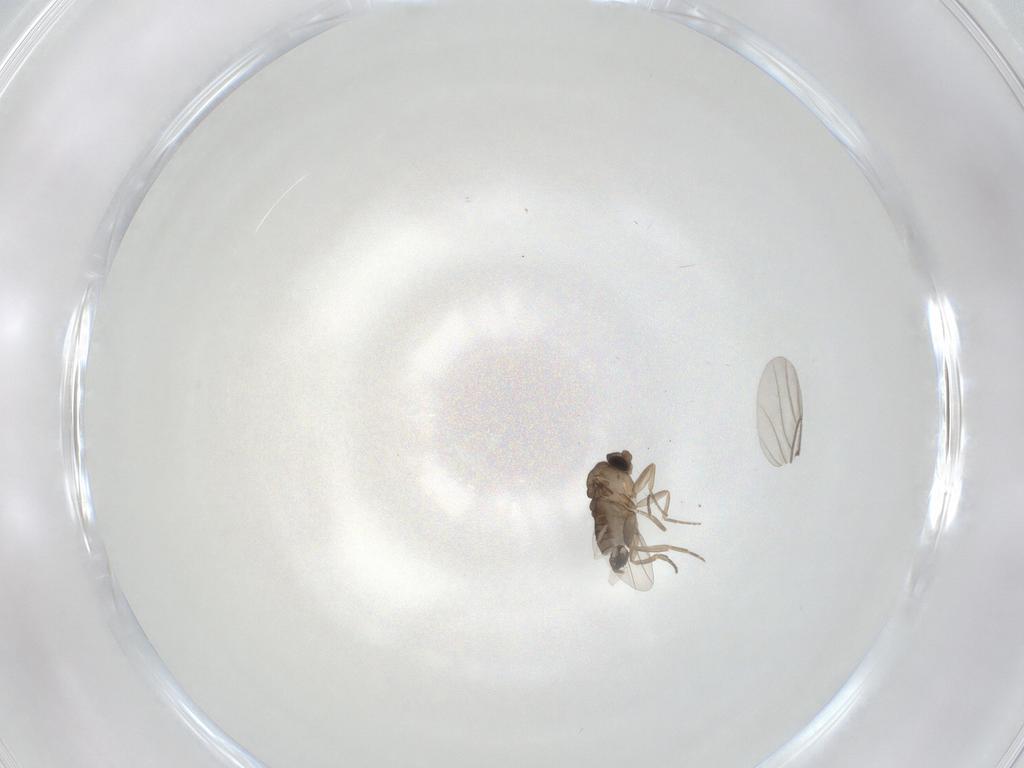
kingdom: Animalia
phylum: Arthropoda
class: Insecta
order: Diptera
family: Phoridae
